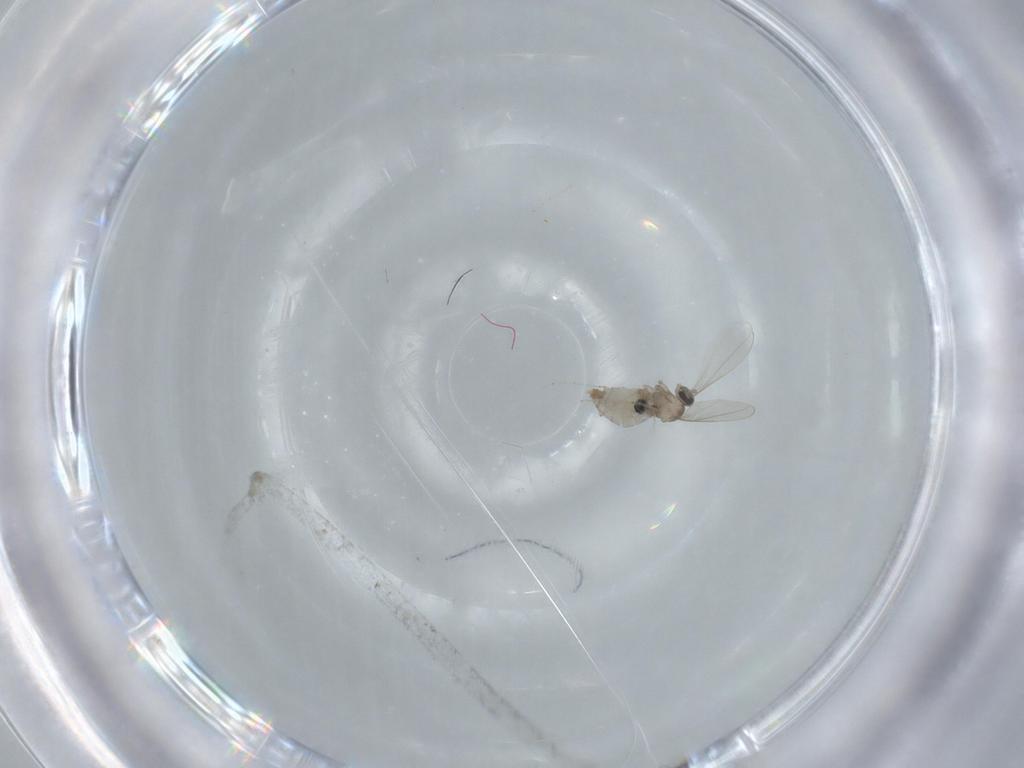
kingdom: Animalia
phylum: Arthropoda
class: Insecta
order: Diptera
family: Cecidomyiidae
